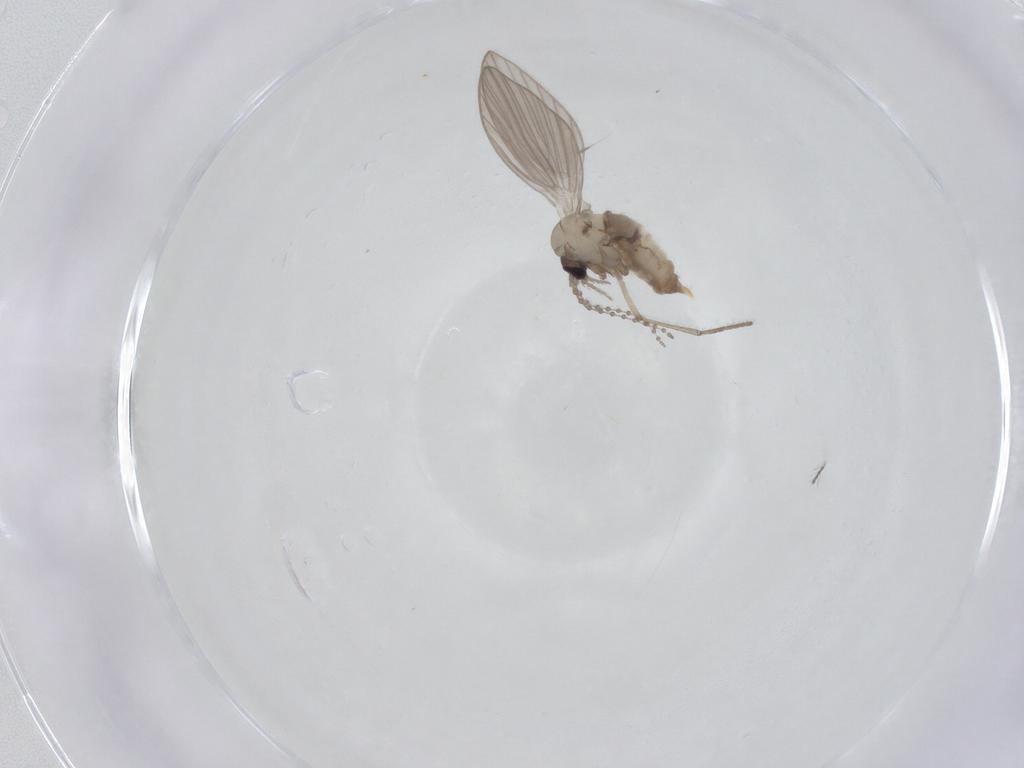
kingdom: Animalia
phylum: Arthropoda
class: Insecta
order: Diptera
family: Psychodidae
